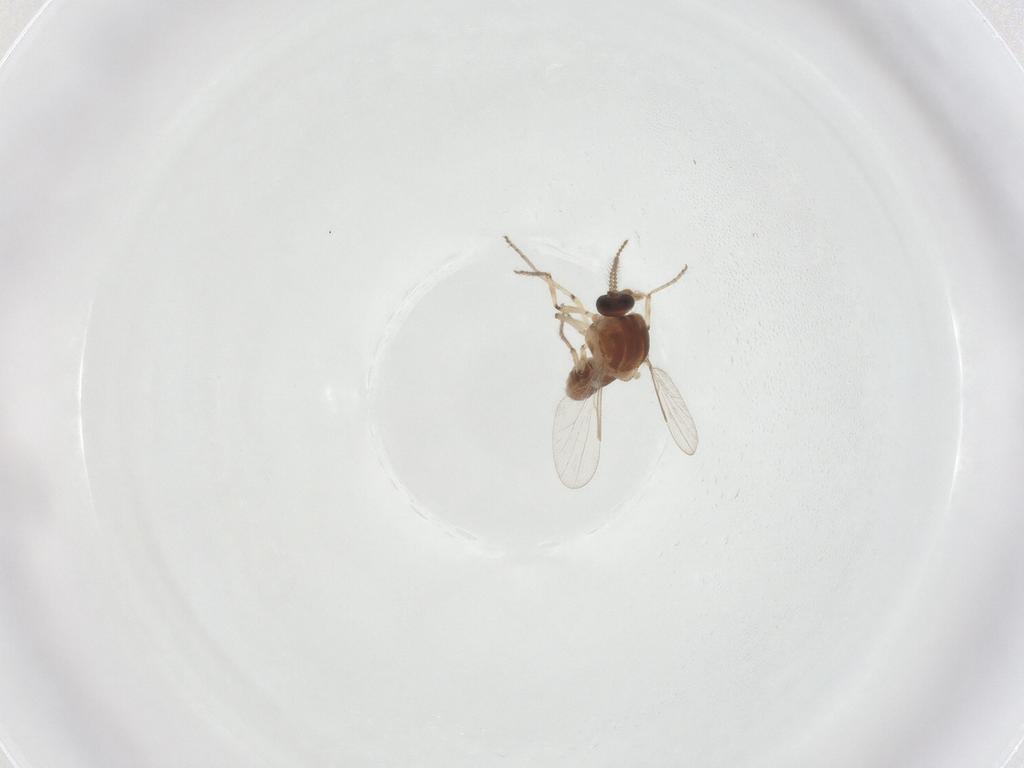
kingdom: Animalia
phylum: Arthropoda
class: Insecta
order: Diptera
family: Ceratopogonidae
